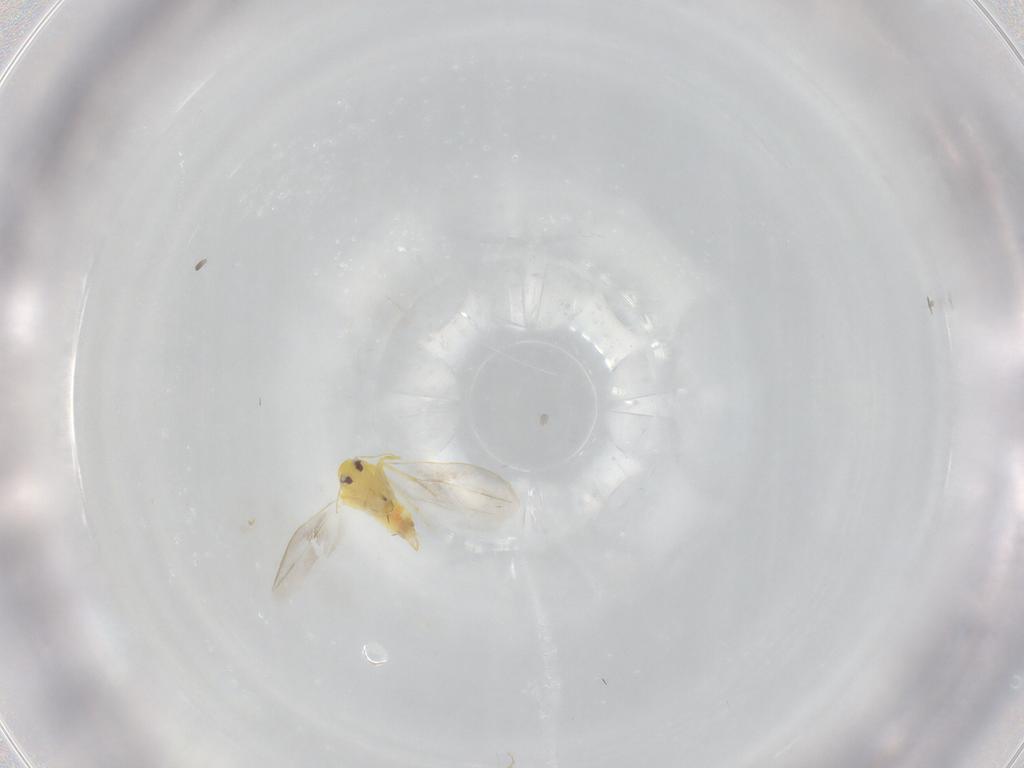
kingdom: Animalia
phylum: Arthropoda
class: Insecta
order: Hemiptera
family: Aleyrodidae
